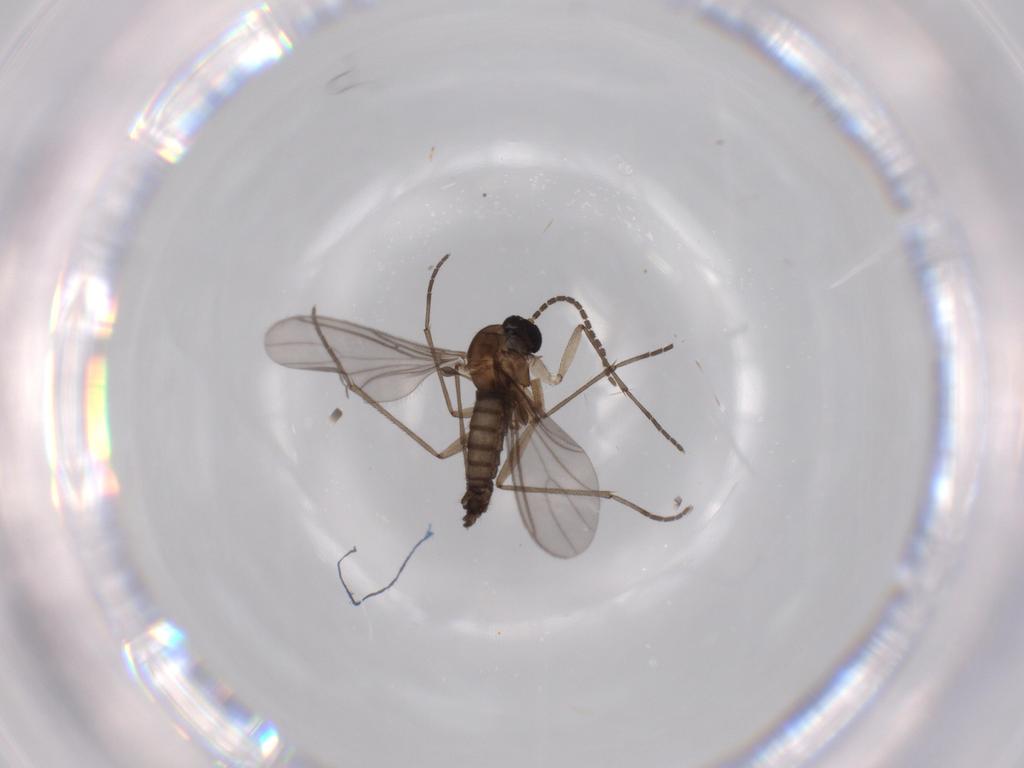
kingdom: Animalia
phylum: Arthropoda
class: Insecta
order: Diptera
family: Sciaridae
